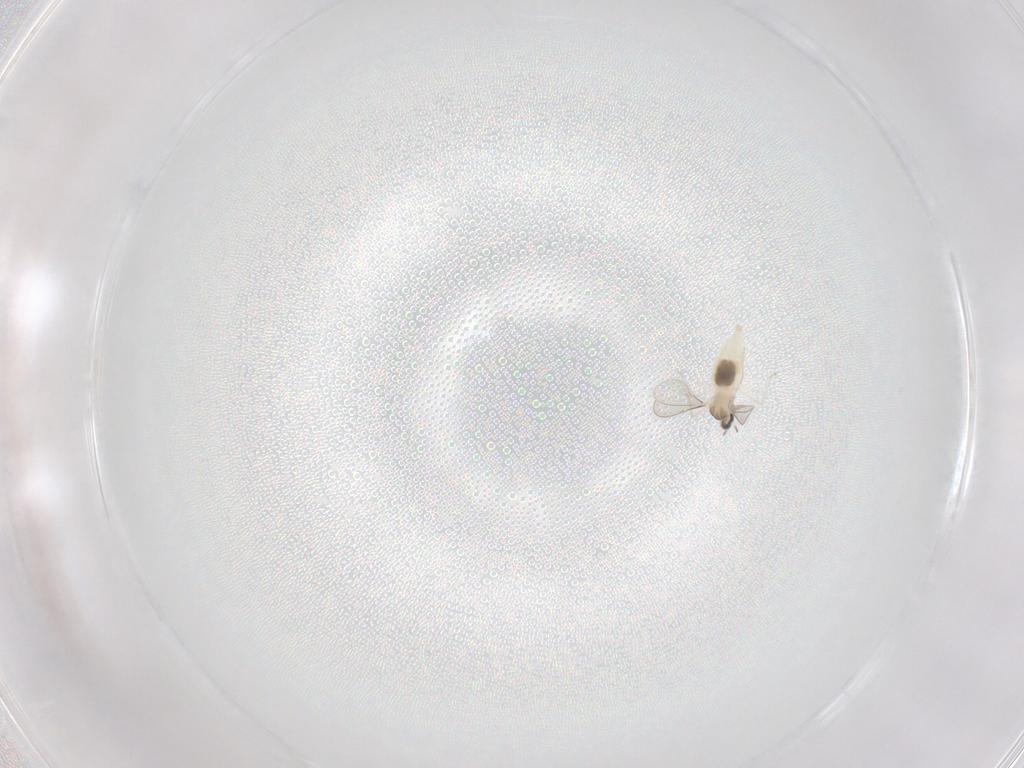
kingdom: Animalia
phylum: Arthropoda
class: Insecta
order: Diptera
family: Cecidomyiidae
